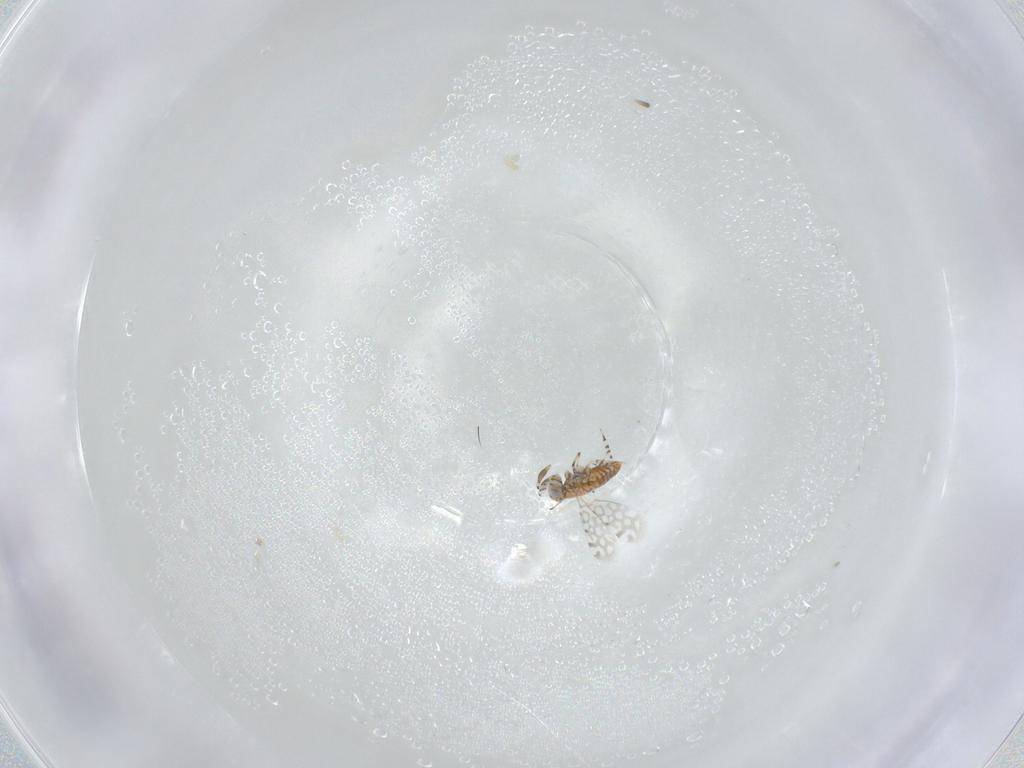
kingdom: Animalia
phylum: Arthropoda
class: Insecta
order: Hymenoptera
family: Aphelinidae
